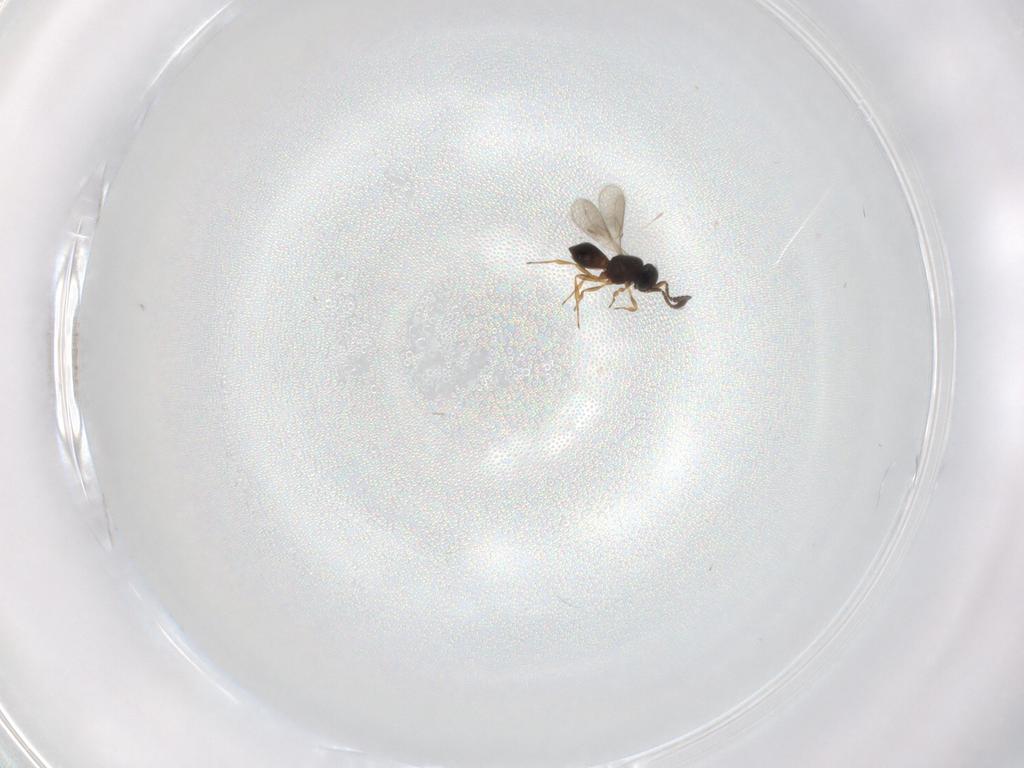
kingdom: Animalia
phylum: Arthropoda
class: Insecta
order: Hymenoptera
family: Scelionidae
